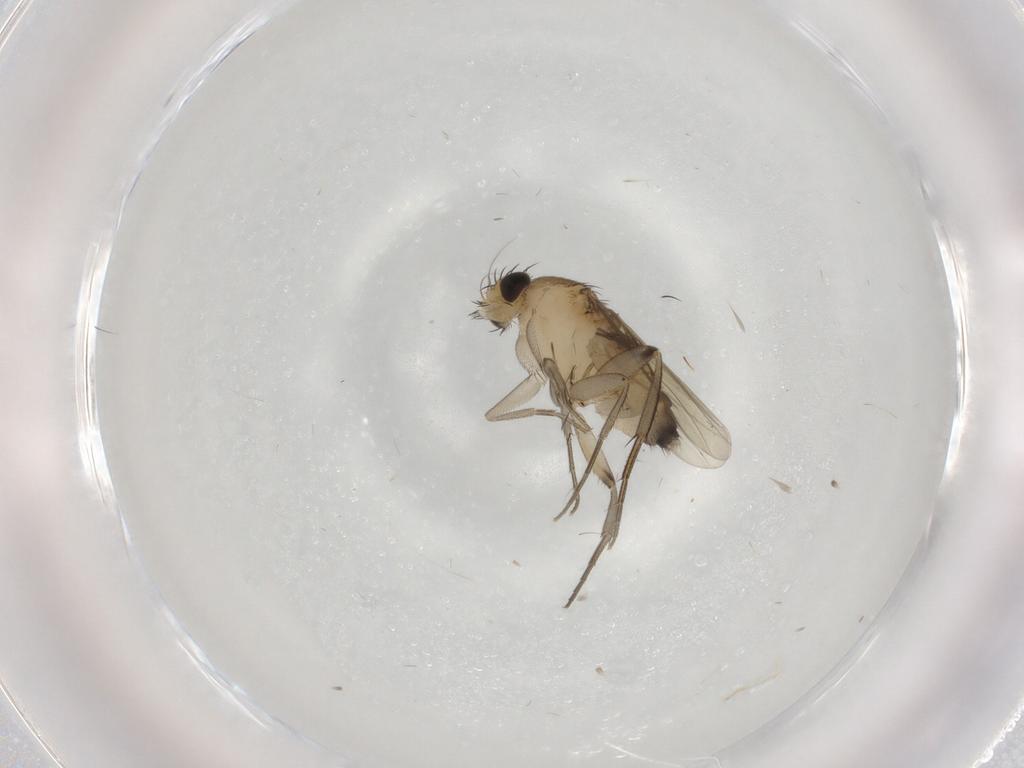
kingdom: Animalia
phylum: Arthropoda
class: Insecta
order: Diptera
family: Phoridae
